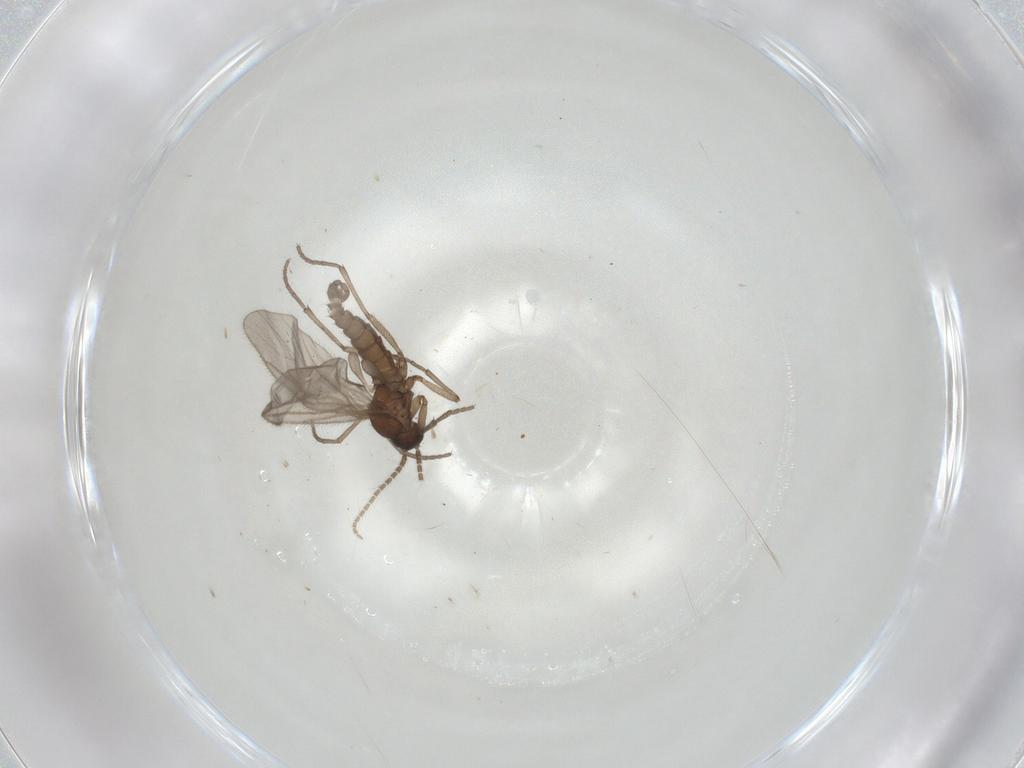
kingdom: Animalia
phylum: Arthropoda
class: Insecta
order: Diptera
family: Sciaridae
